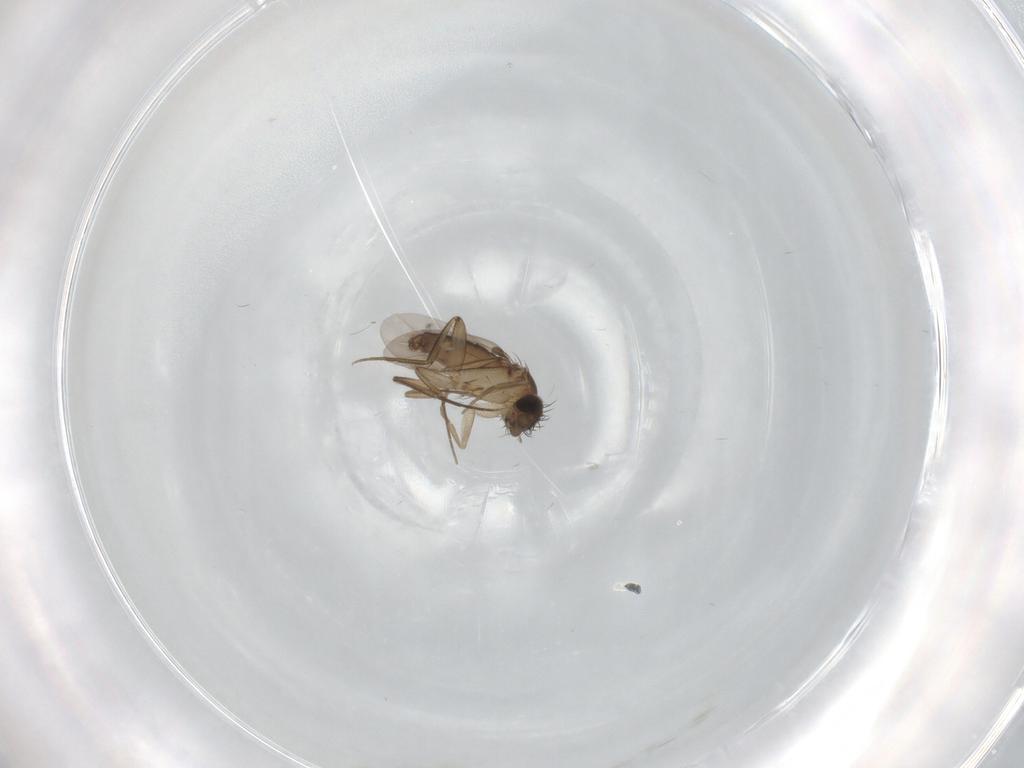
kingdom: Animalia
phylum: Arthropoda
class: Insecta
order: Diptera
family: Phoridae
